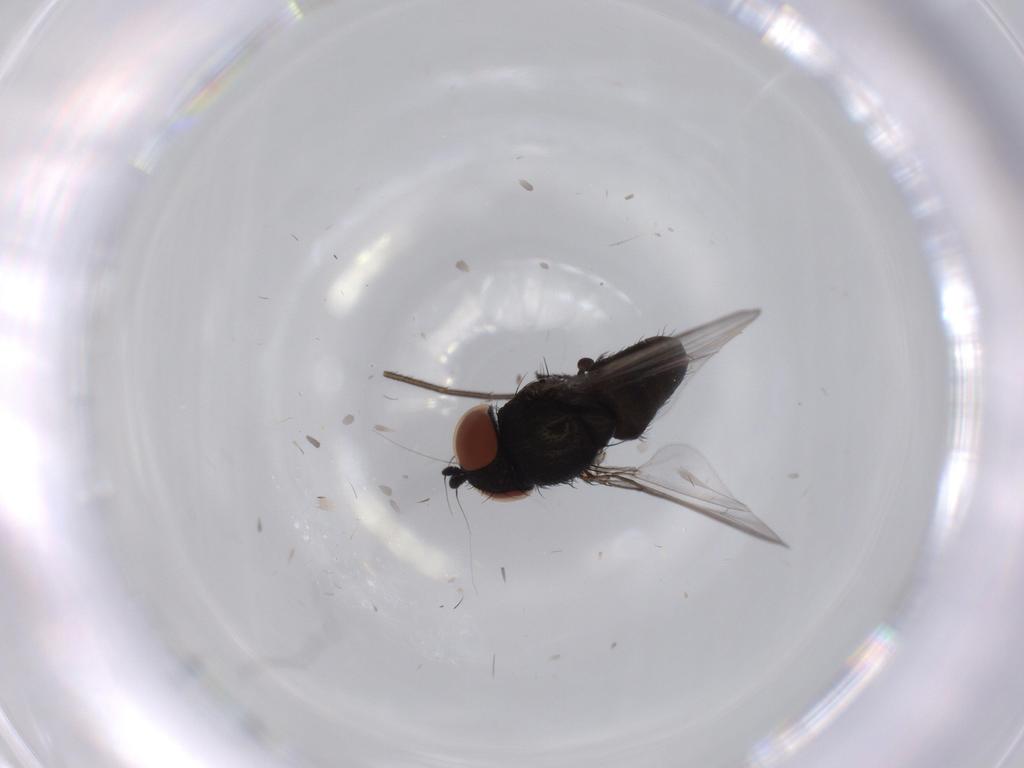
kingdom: Animalia
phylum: Arthropoda
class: Insecta
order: Diptera
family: Milichiidae
